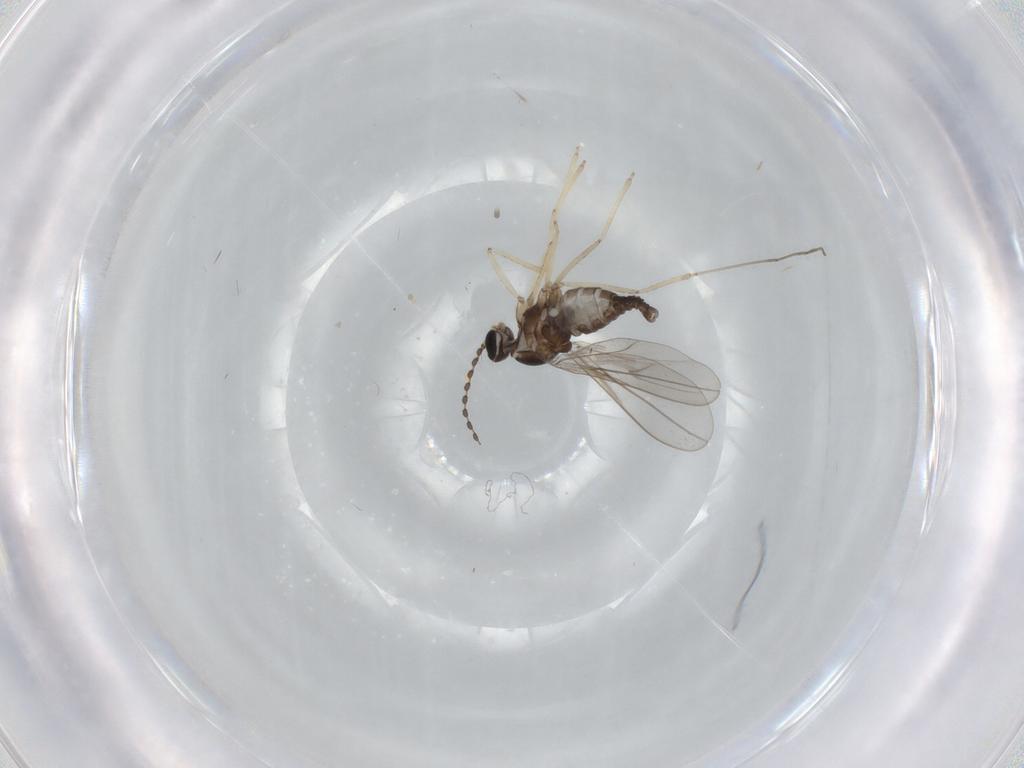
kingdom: Animalia
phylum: Arthropoda
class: Insecta
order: Diptera
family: Cecidomyiidae
